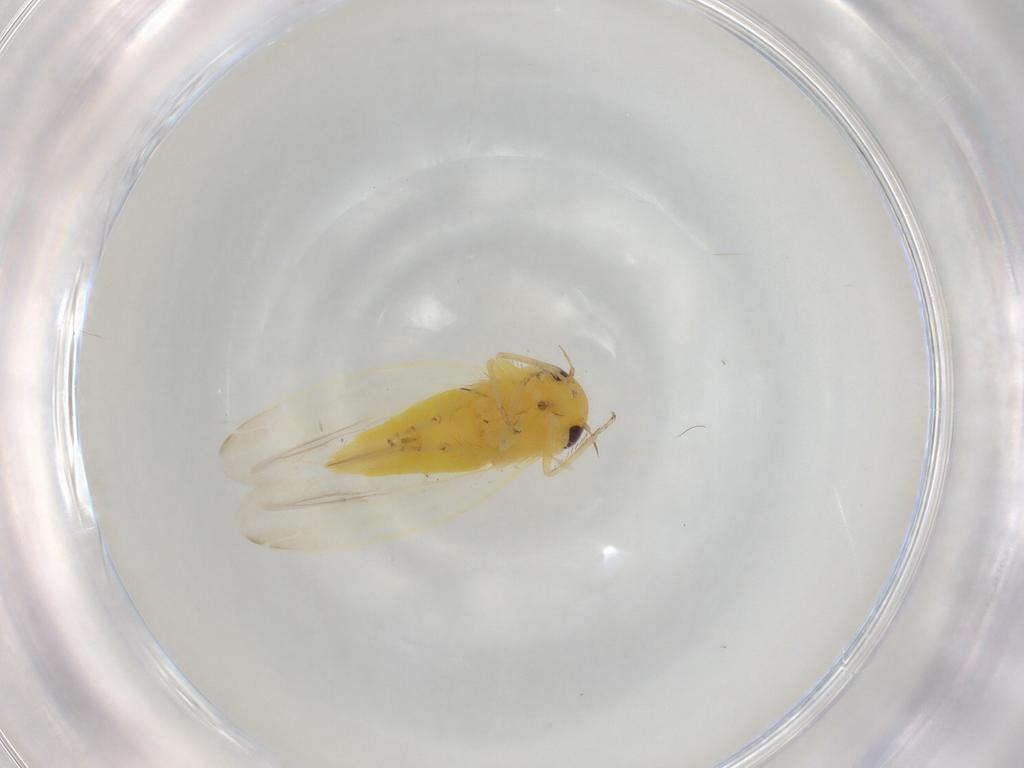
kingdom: Animalia
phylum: Arthropoda
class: Insecta
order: Hemiptera
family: Cicadellidae
